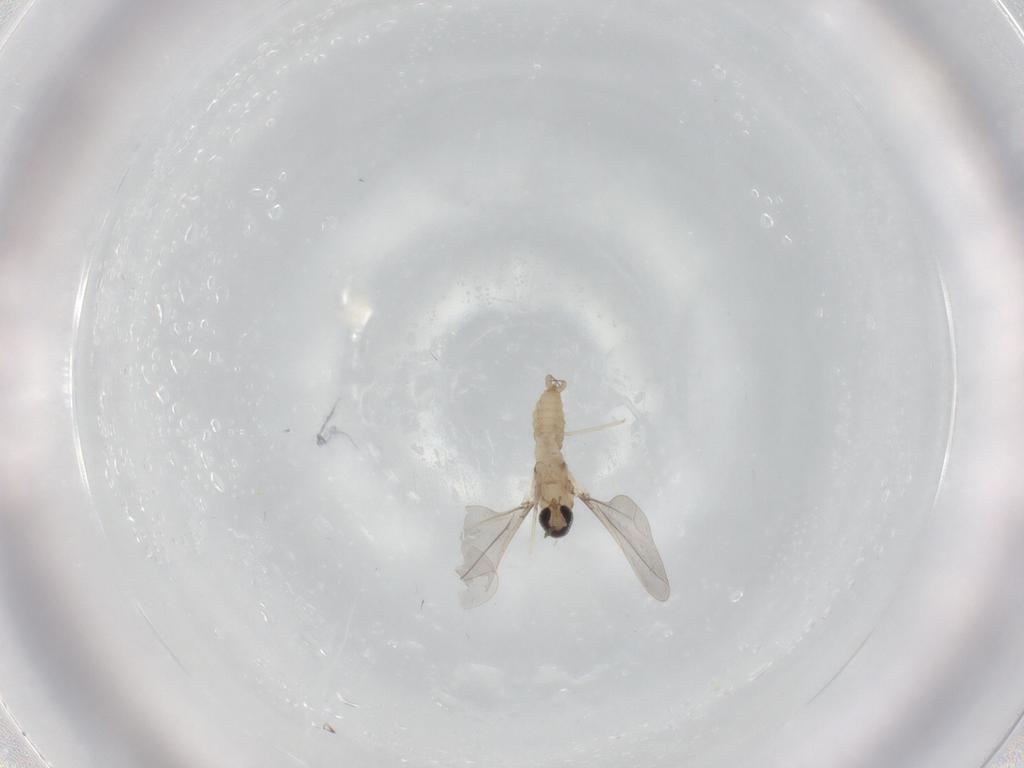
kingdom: Animalia
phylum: Arthropoda
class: Insecta
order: Diptera
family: Cecidomyiidae
